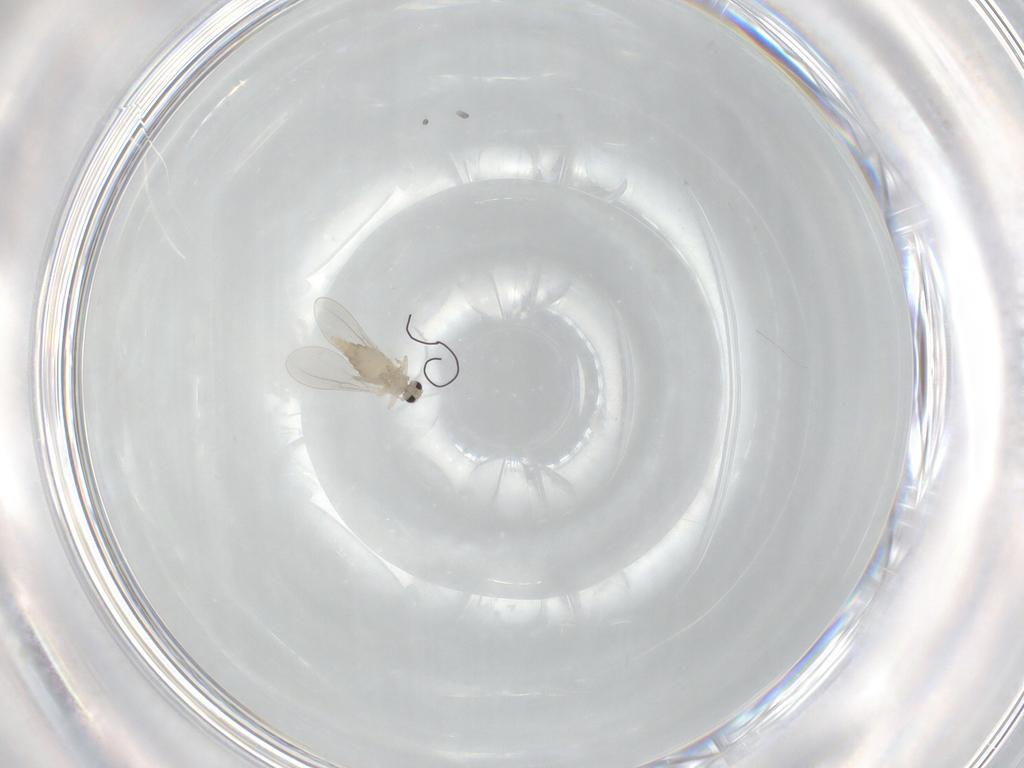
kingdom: Animalia
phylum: Arthropoda
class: Insecta
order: Diptera
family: Cecidomyiidae
